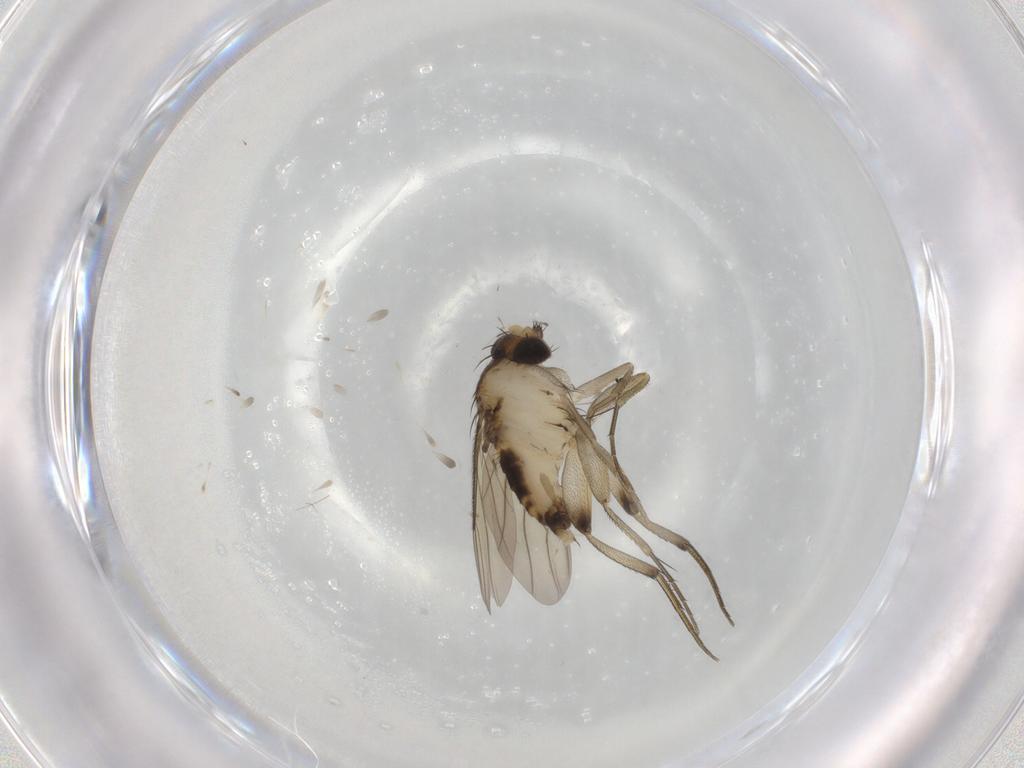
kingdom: Animalia
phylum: Arthropoda
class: Insecta
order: Diptera
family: Phoridae
